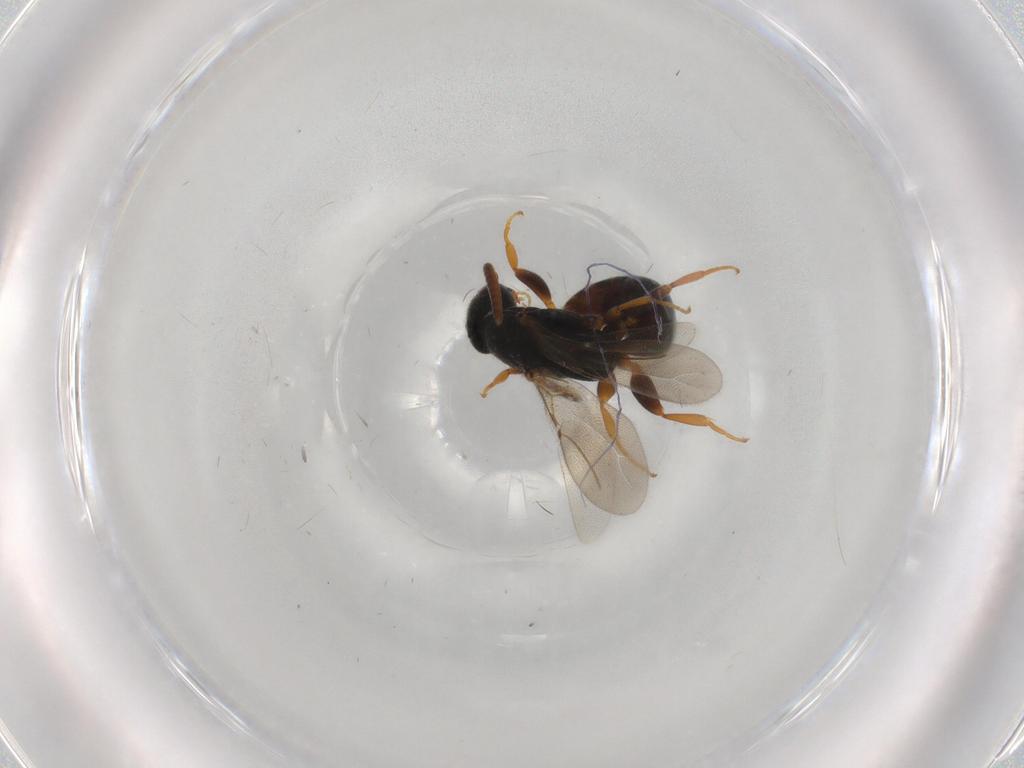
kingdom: Animalia
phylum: Arthropoda
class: Insecta
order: Hymenoptera
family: Bethylidae
